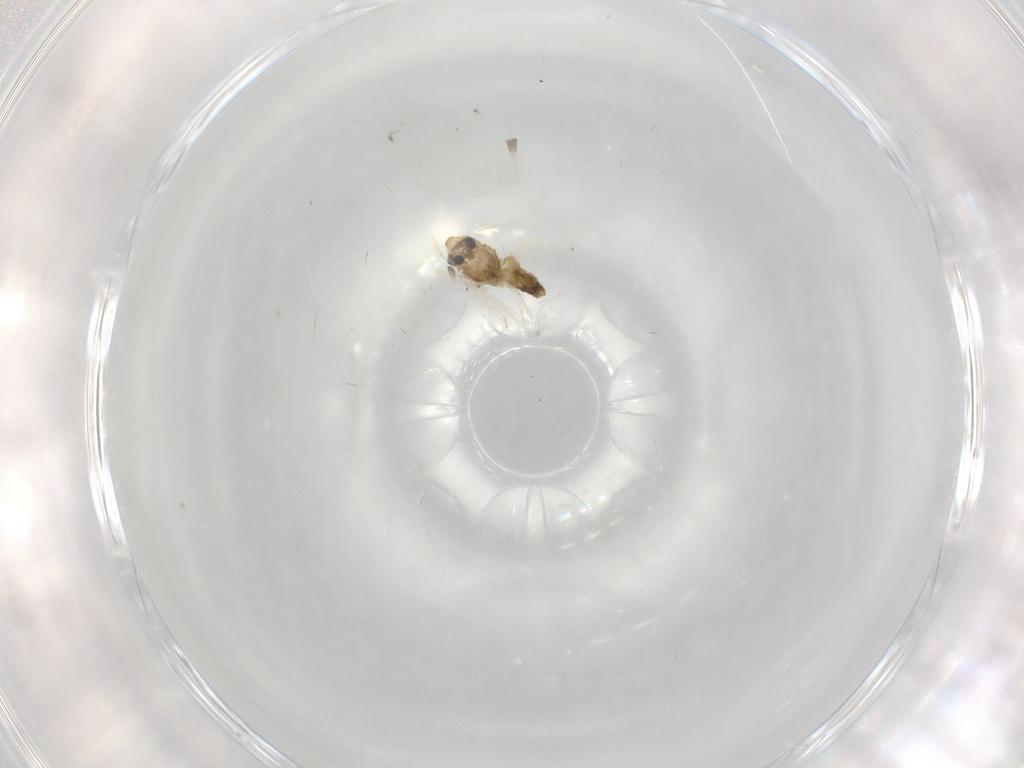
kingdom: Animalia
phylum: Arthropoda
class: Insecta
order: Diptera
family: Chironomidae
